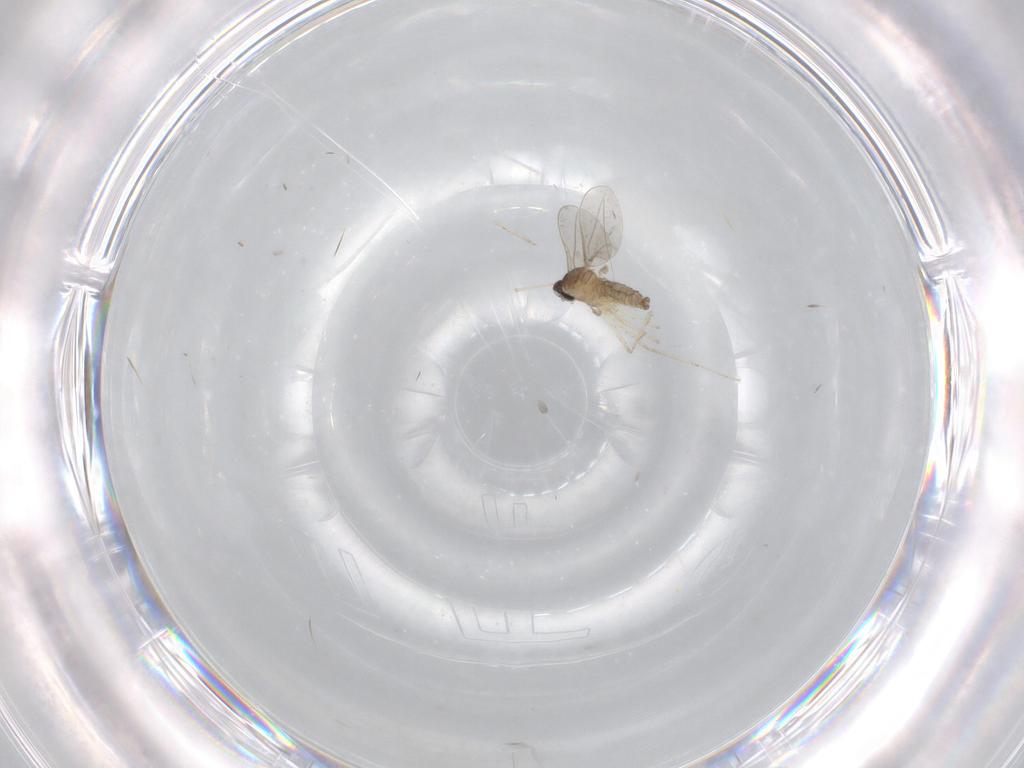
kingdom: Animalia
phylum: Arthropoda
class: Insecta
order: Diptera
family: Cecidomyiidae
